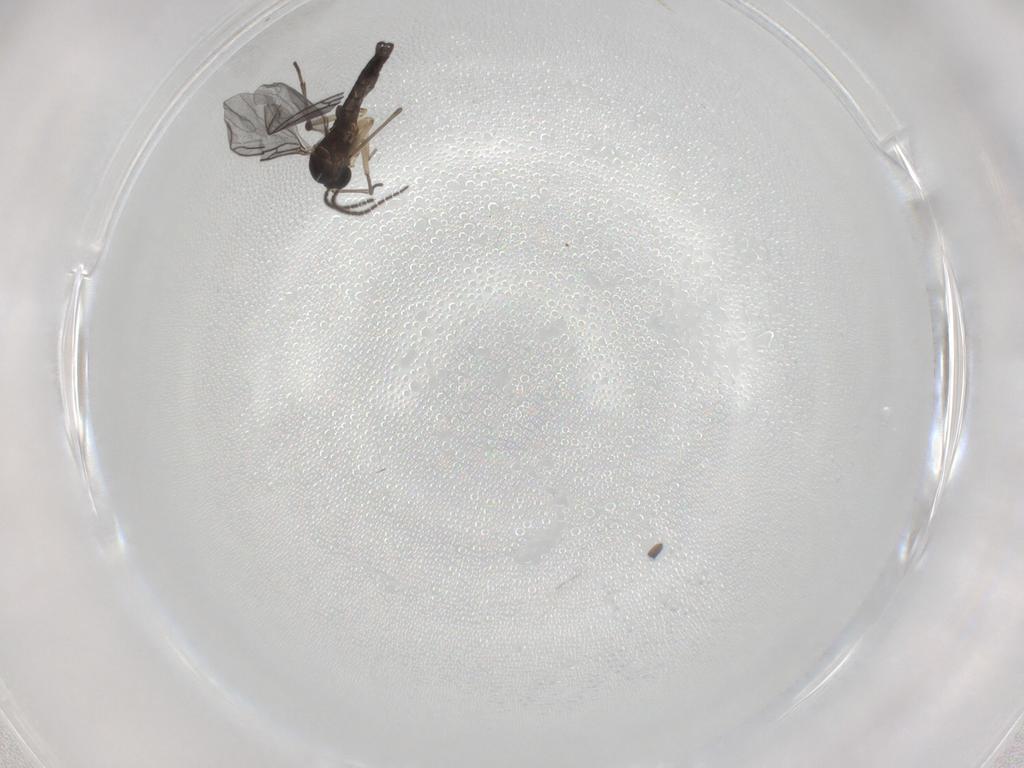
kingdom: Animalia
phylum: Arthropoda
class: Insecta
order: Diptera
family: Sciaridae
